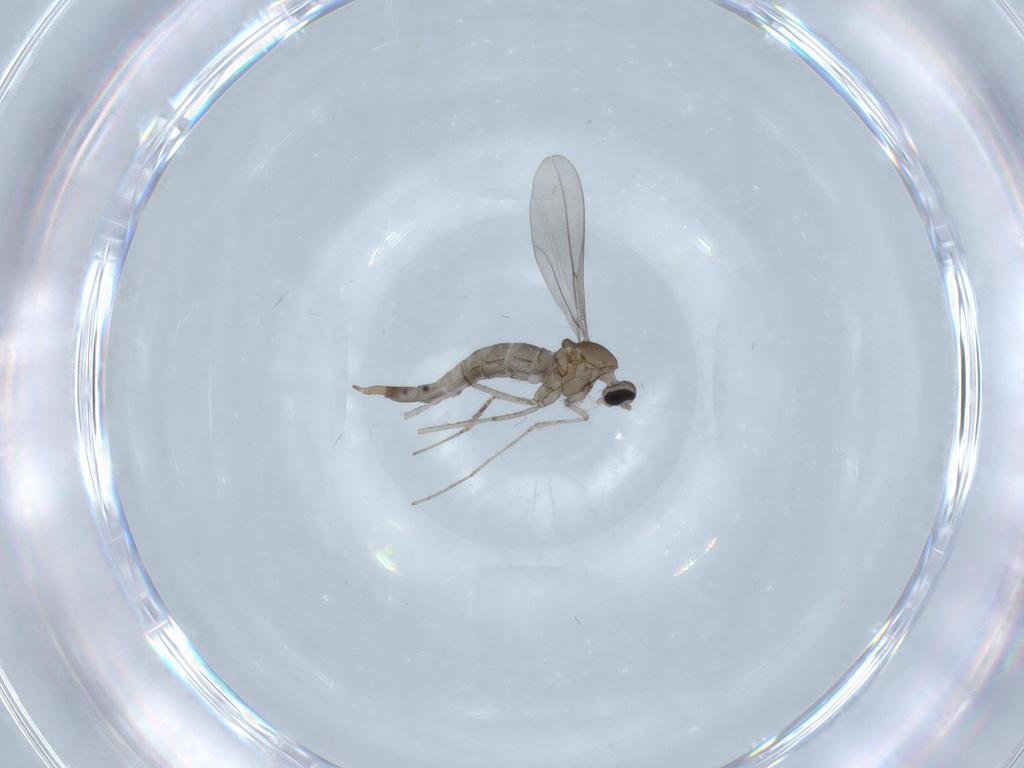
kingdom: Animalia
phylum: Arthropoda
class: Insecta
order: Diptera
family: Cecidomyiidae
